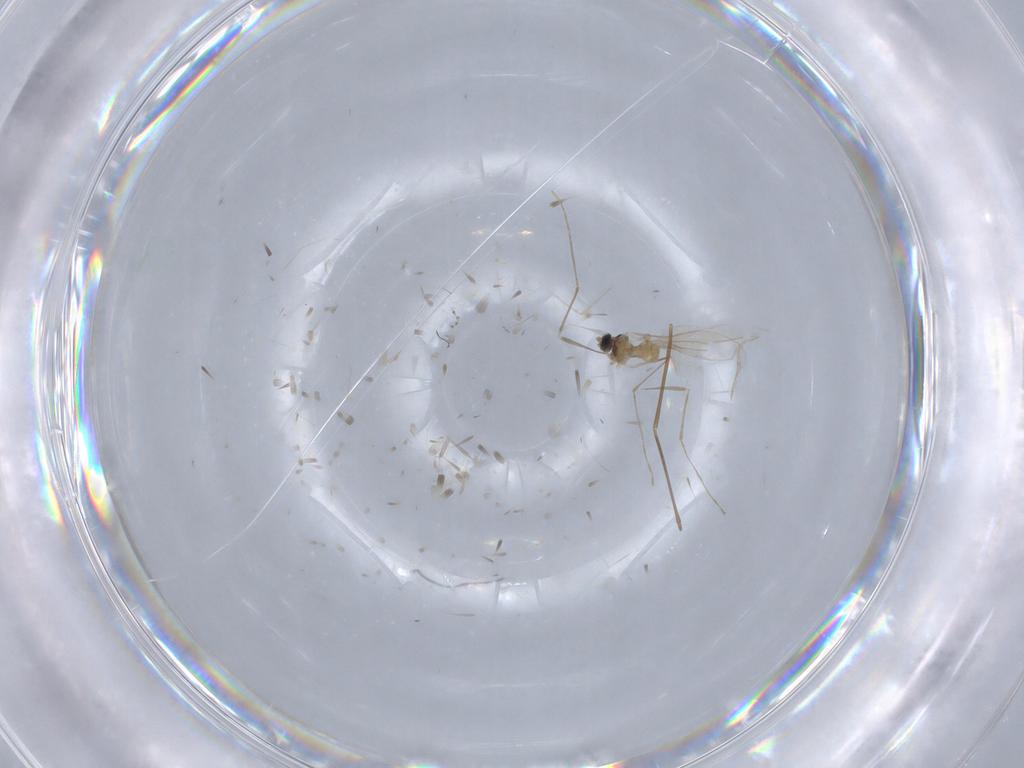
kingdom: Animalia
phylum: Arthropoda
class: Insecta
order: Diptera
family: Cecidomyiidae
